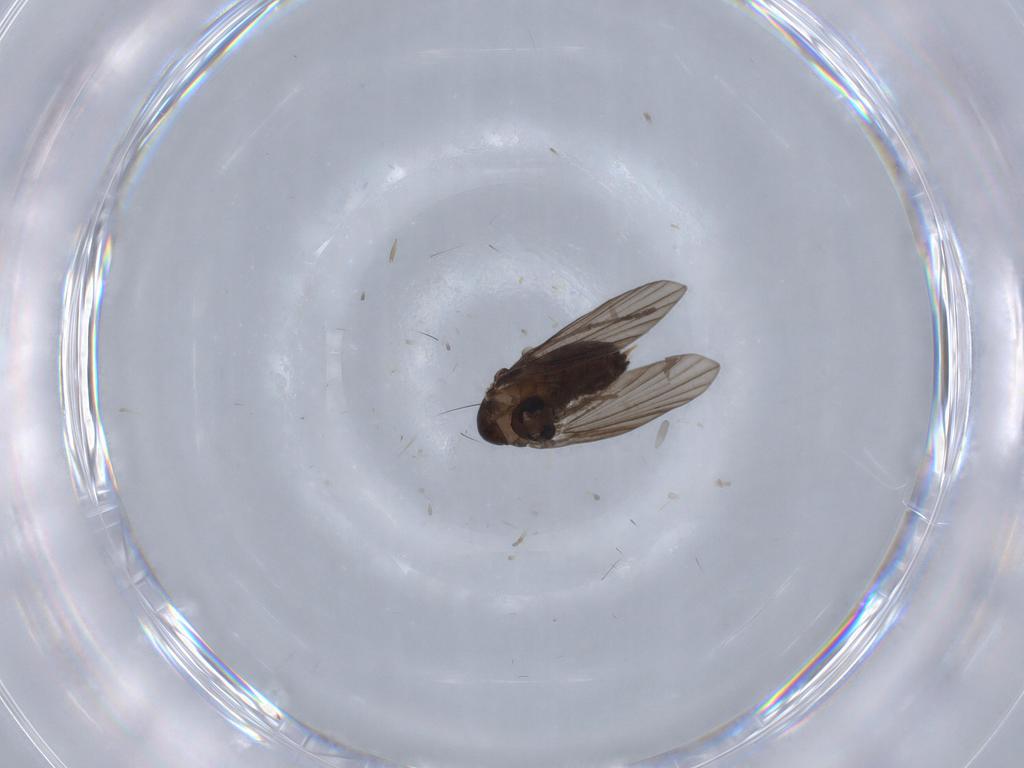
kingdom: Animalia
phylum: Arthropoda
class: Insecta
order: Diptera
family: Psychodidae
